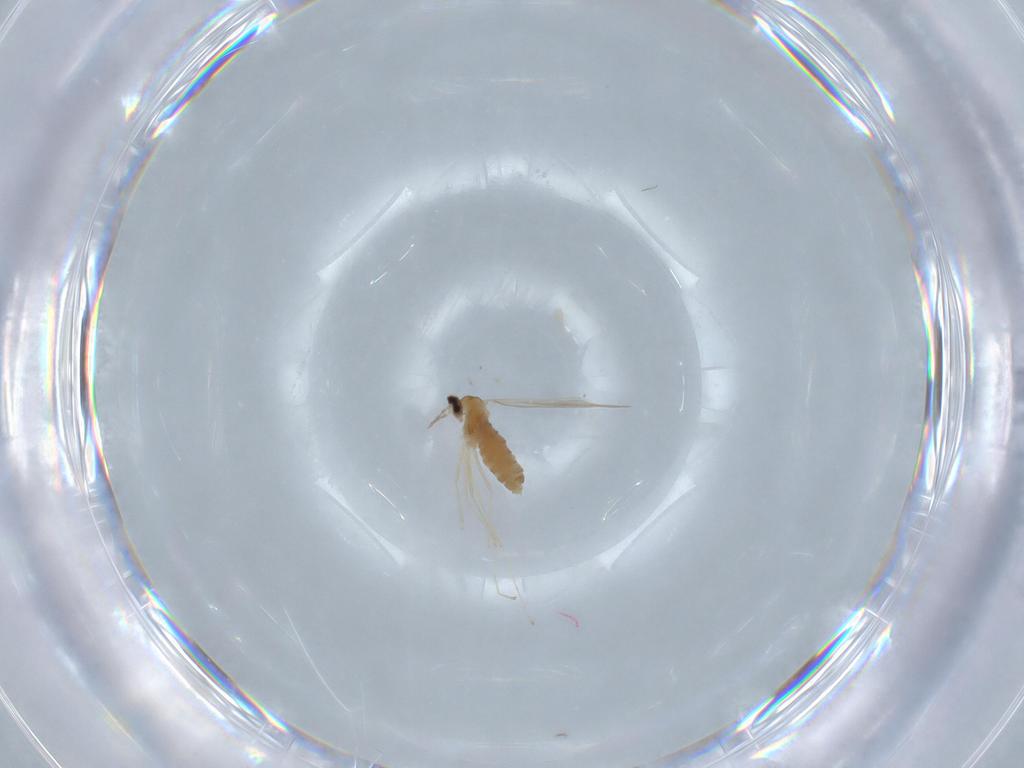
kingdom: Animalia
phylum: Arthropoda
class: Insecta
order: Diptera
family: Cecidomyiidae
